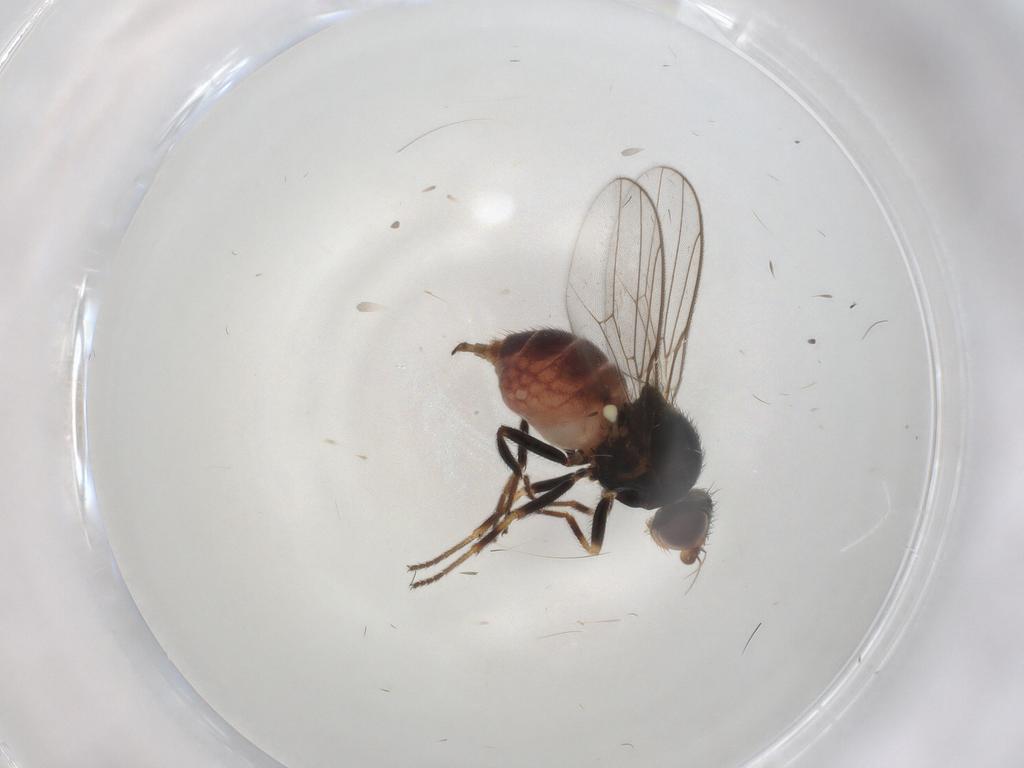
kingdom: Animalia
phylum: Arthropoda
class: Insecta
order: Diptera
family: Chloropidae
